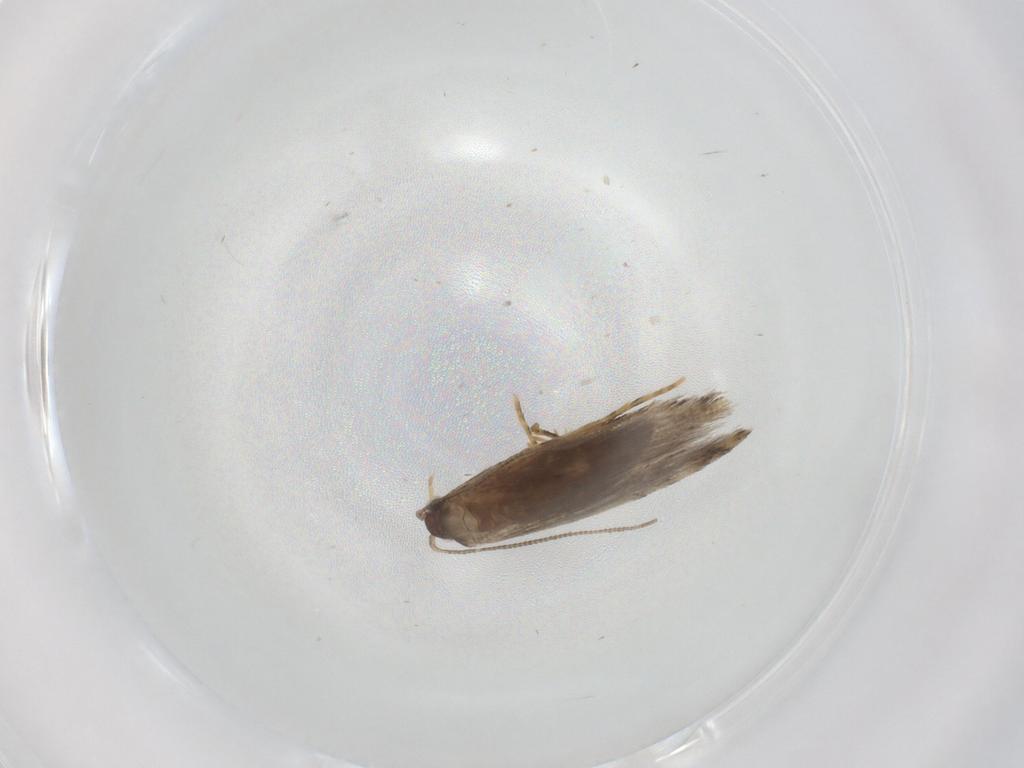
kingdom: Animalia
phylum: Arthropoda
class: Insecta
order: Lepidoptera
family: Tineidae
